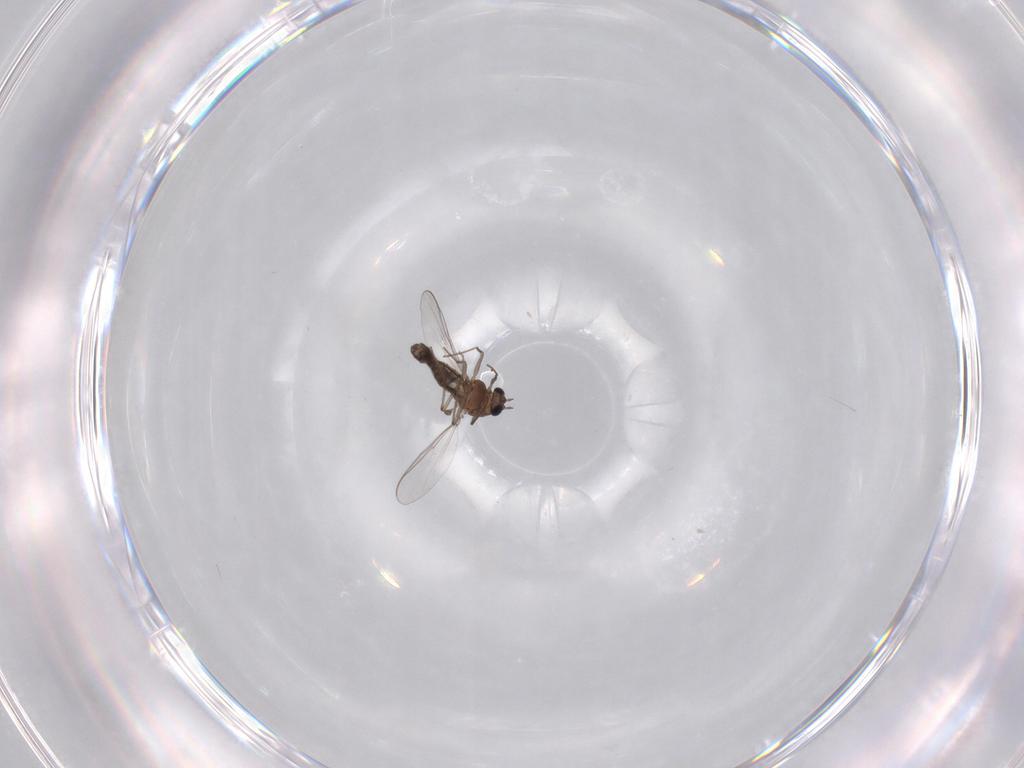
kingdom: Animalia
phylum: Arthropoda
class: Insecta
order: Diptera
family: Chironomidae
